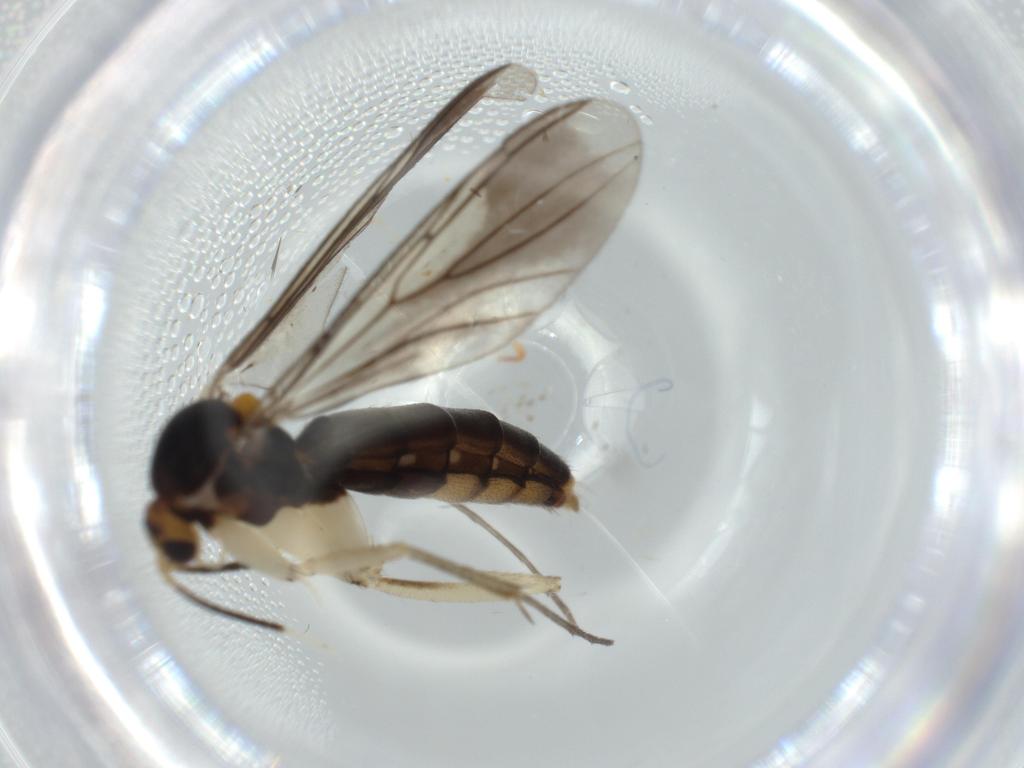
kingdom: Animalia
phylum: Arthropoda
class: Insecta
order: Diptera
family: Mycetophilidae
